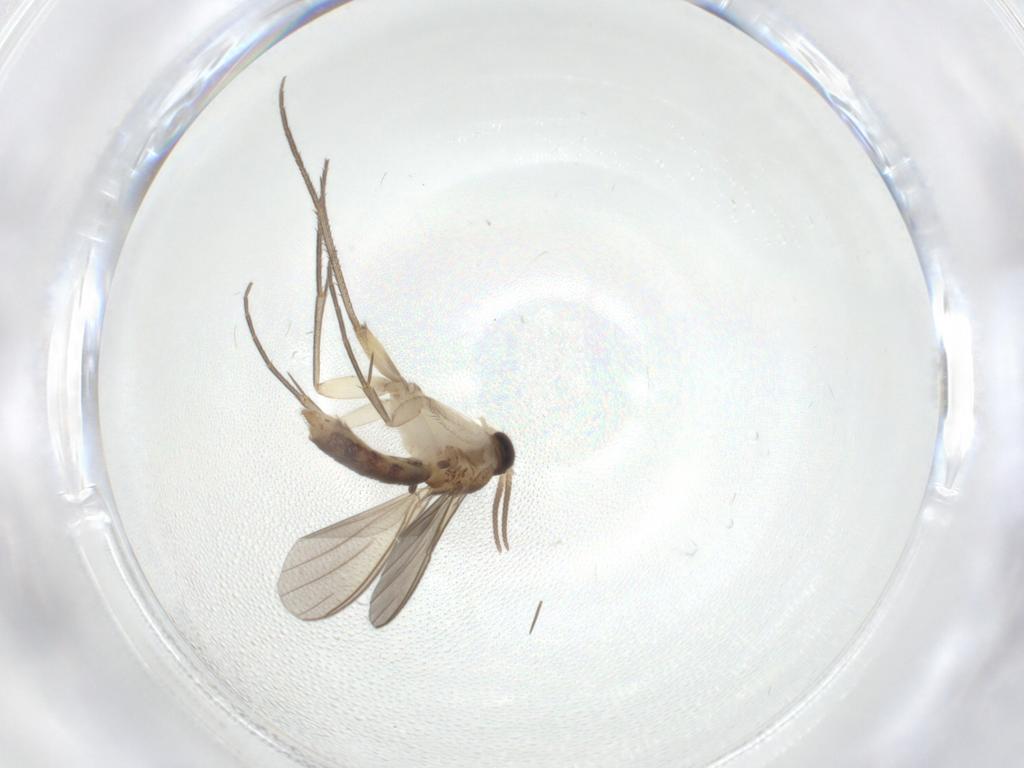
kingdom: Animalia
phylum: Arthropoda
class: Insecta
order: Diptera
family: Mycetophilidae
